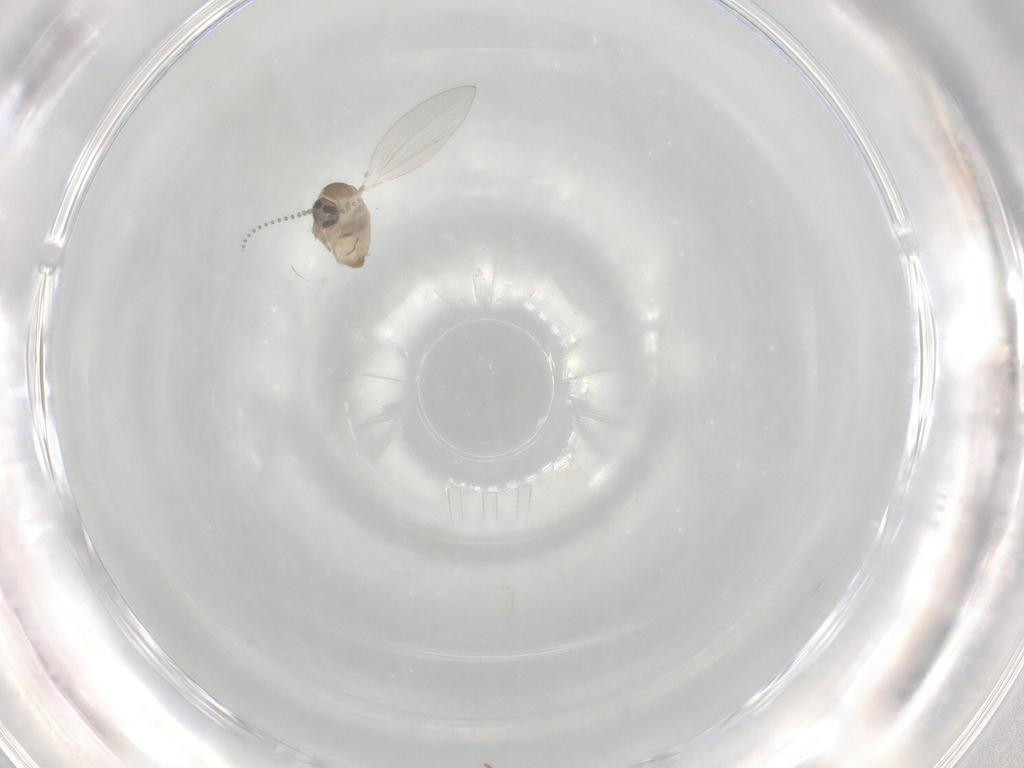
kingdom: Animalia
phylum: Arthropoda
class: Insecta
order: Diptera
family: Psychodidae
